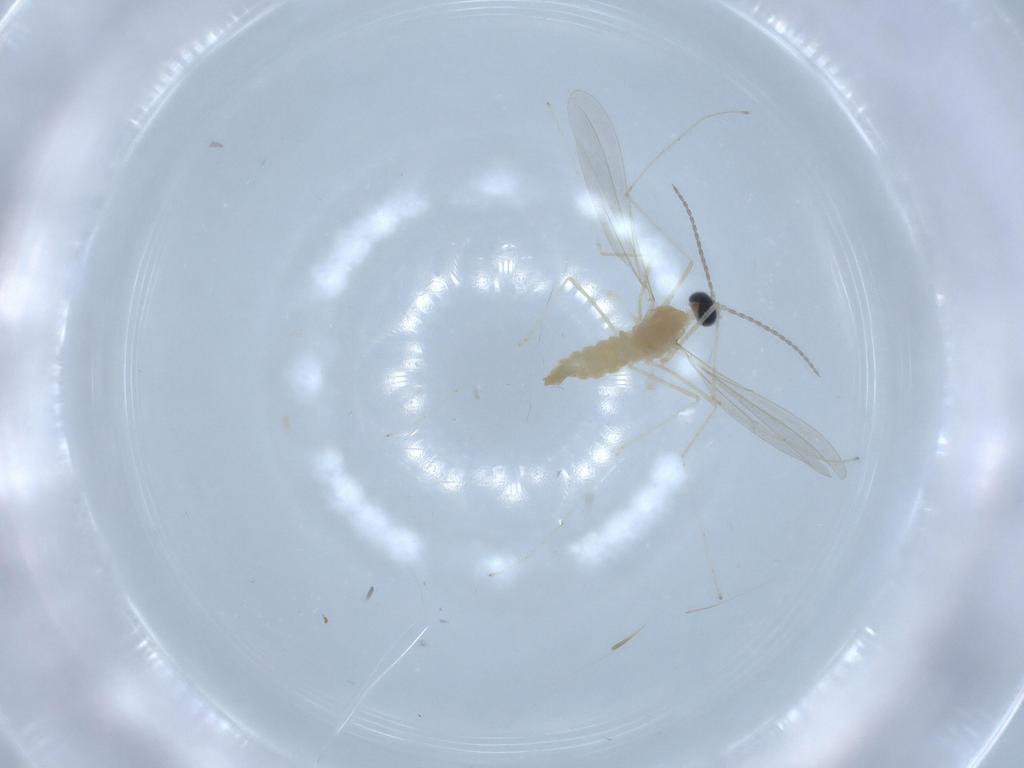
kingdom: Animalia
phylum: Arthropoda
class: Insecta
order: Diptera
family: Cecidomyiidae
